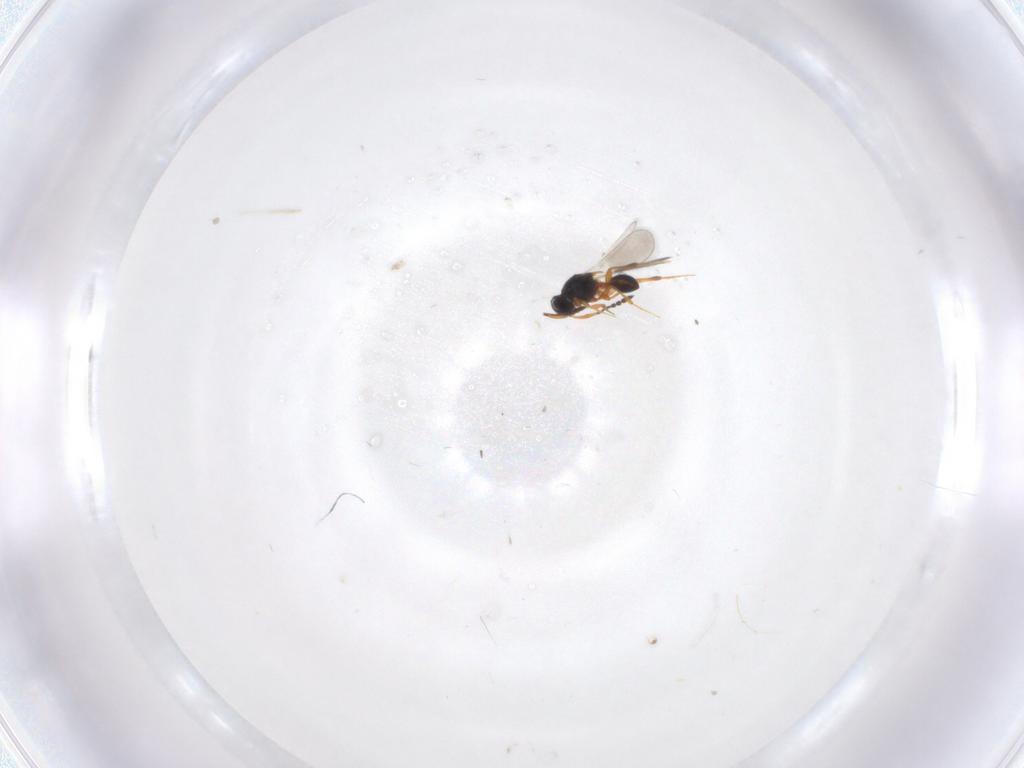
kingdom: Animalia
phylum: Arthropoda
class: Insecta
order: Hymenoptera
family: Platygastridae
